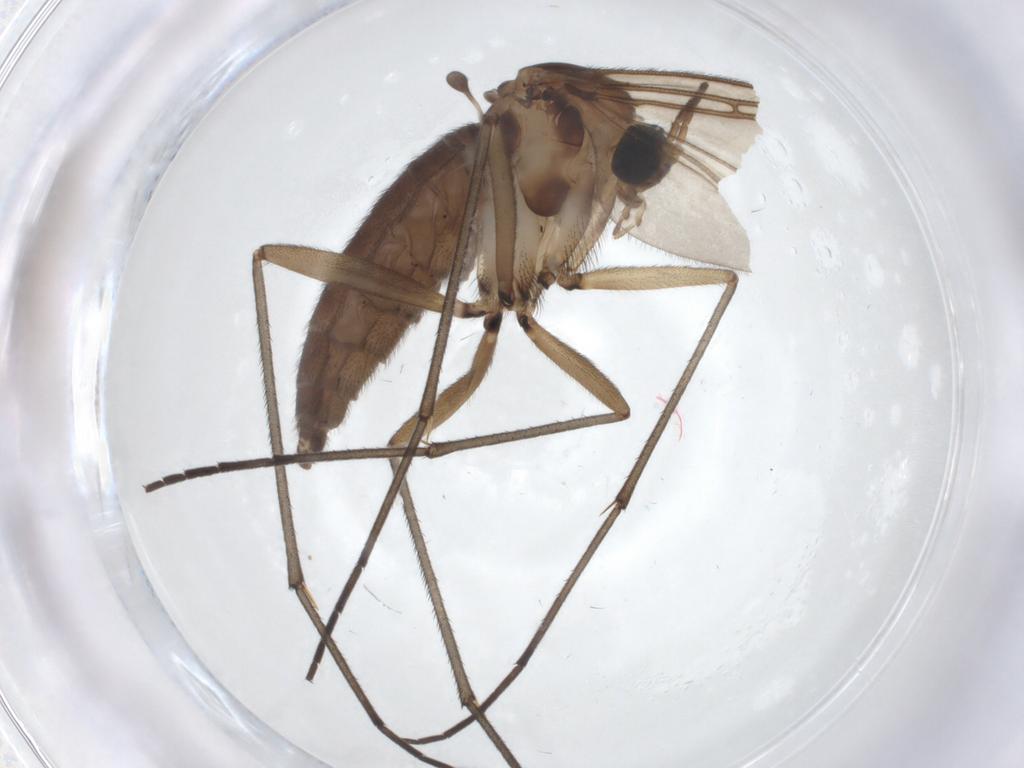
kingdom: Animalia
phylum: Arthropoda
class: Insecta
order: Diptera
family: Sciaridae
